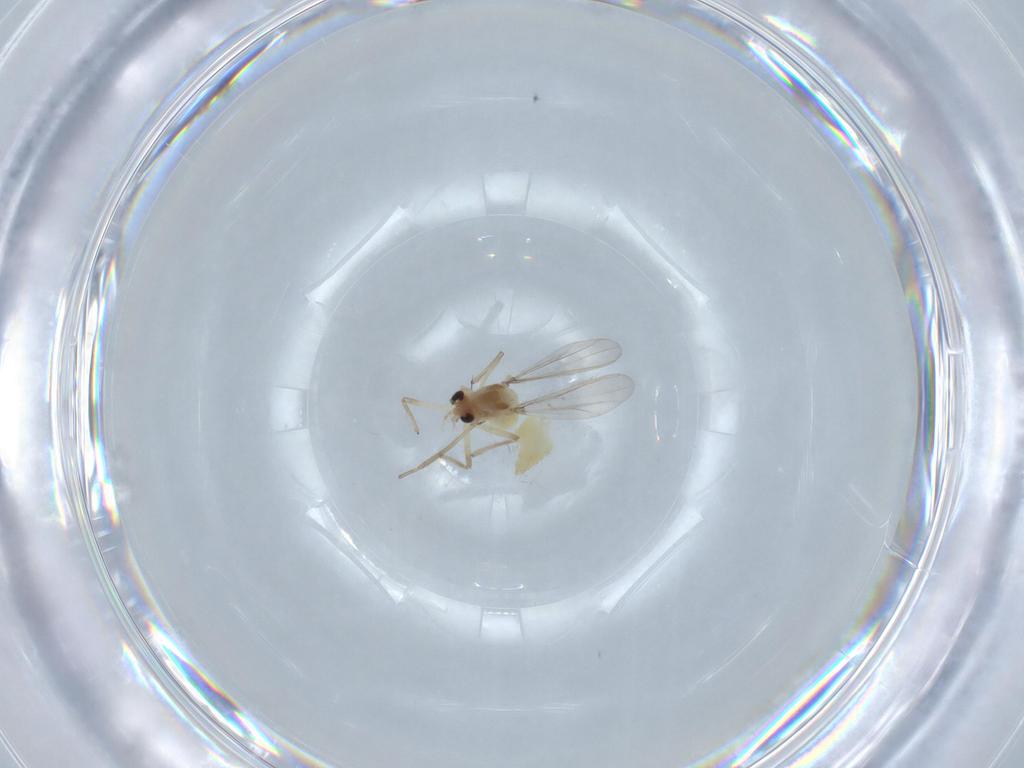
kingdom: Animalia
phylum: Arthropoda
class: Insecta
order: Diptera
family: Chironomidae
